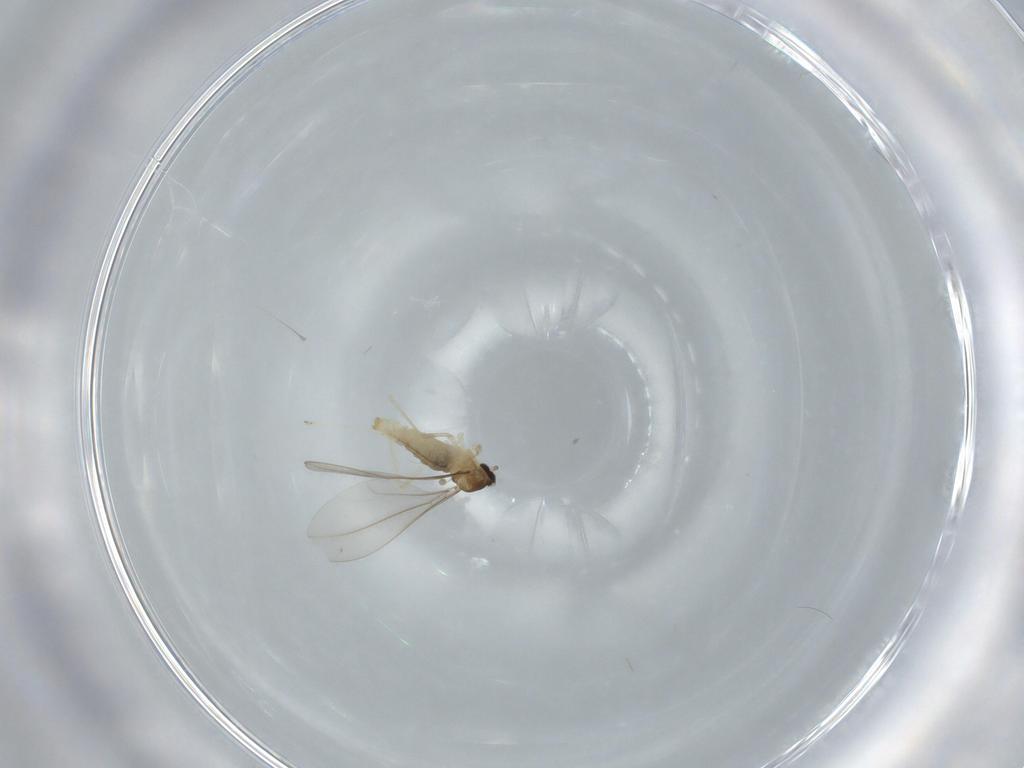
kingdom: Animalia
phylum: Arthropoda
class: Insecta
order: Diptera
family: Cecidomyiidae
